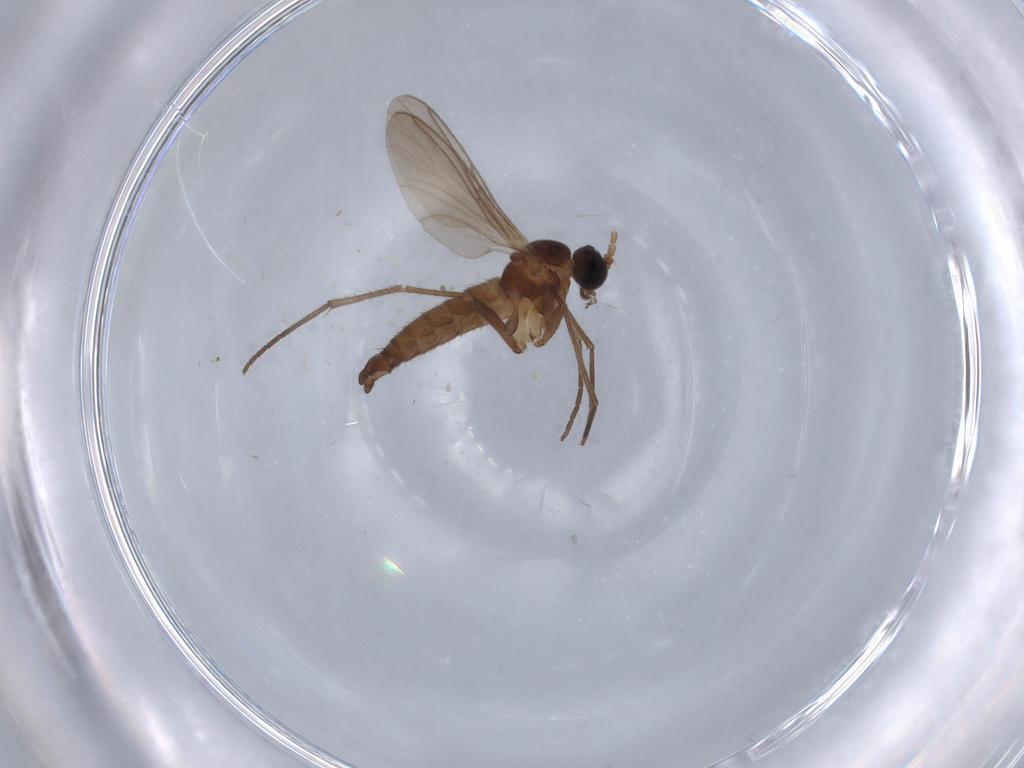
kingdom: Animalia
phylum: Arthropoda
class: Insecta
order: Diptera
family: Sciaridae
